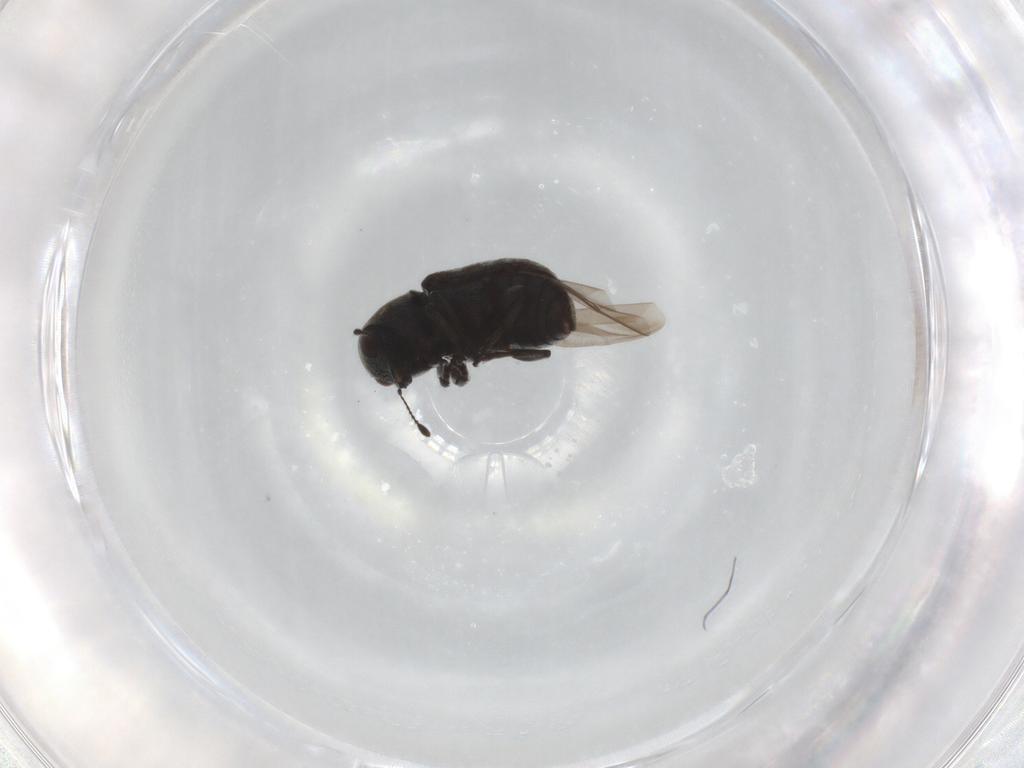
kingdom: Animalia
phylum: Arthropoda
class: Insecta
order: Coleoptera
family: Cerambycidae
